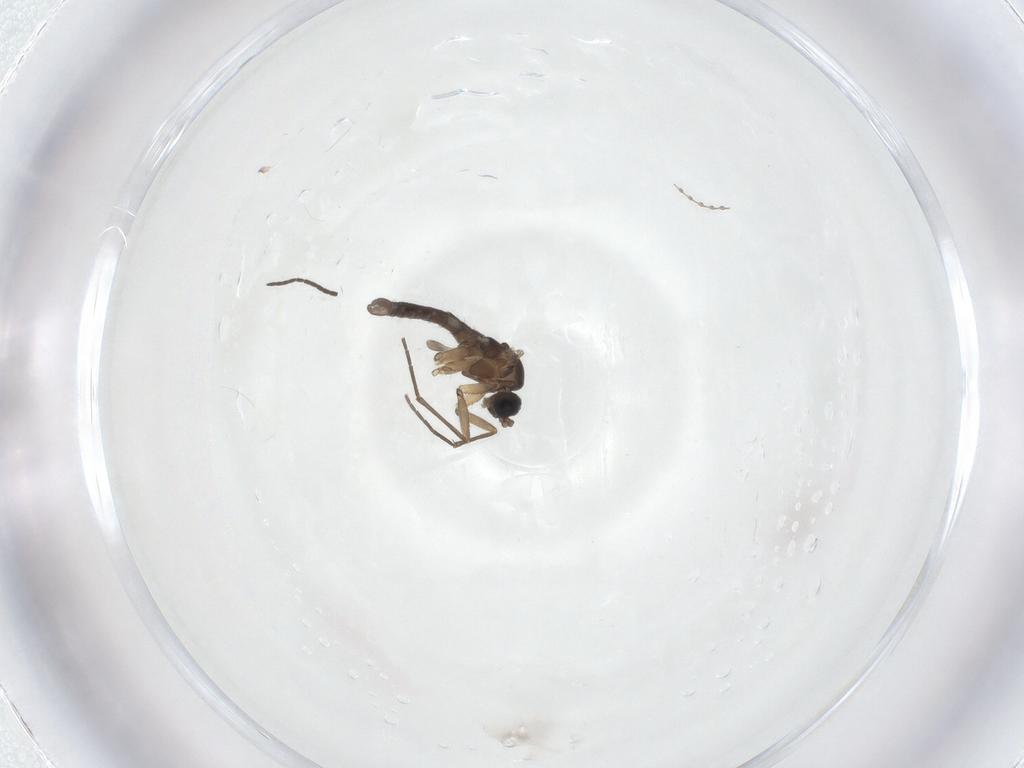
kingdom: Animalia
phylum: Arthropoda
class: Insecta
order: Diptera
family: Sciaridae
